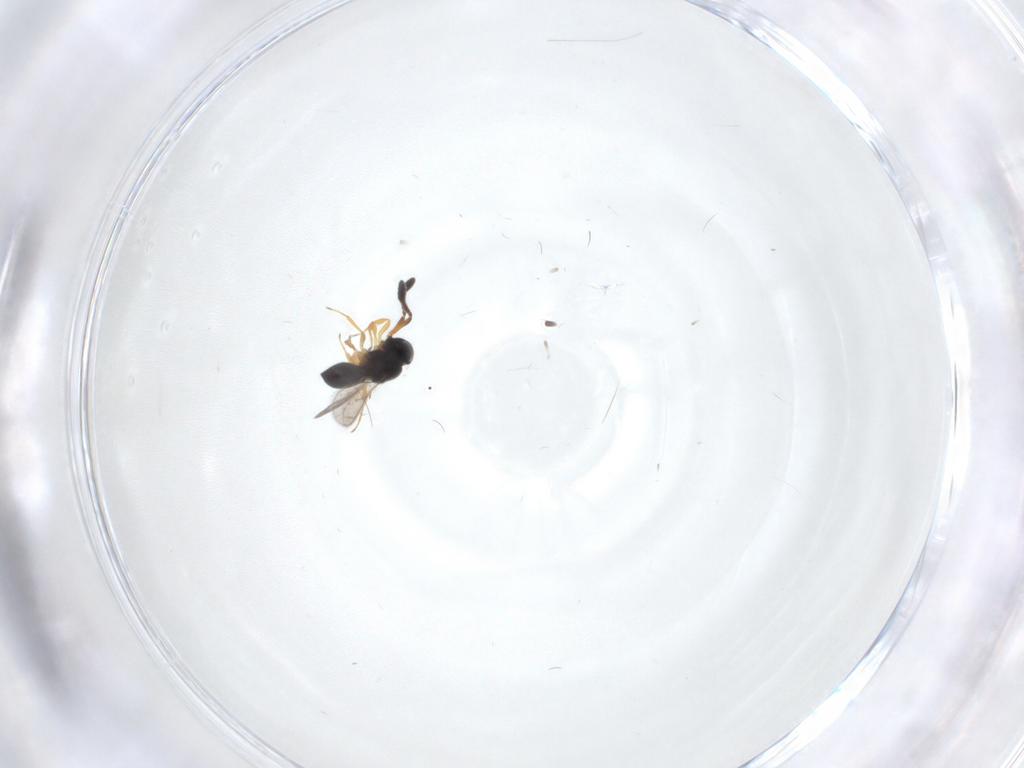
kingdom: Animalia
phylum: Arthropoda
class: Insecta
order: Hymenoptera
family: Scelionidae
